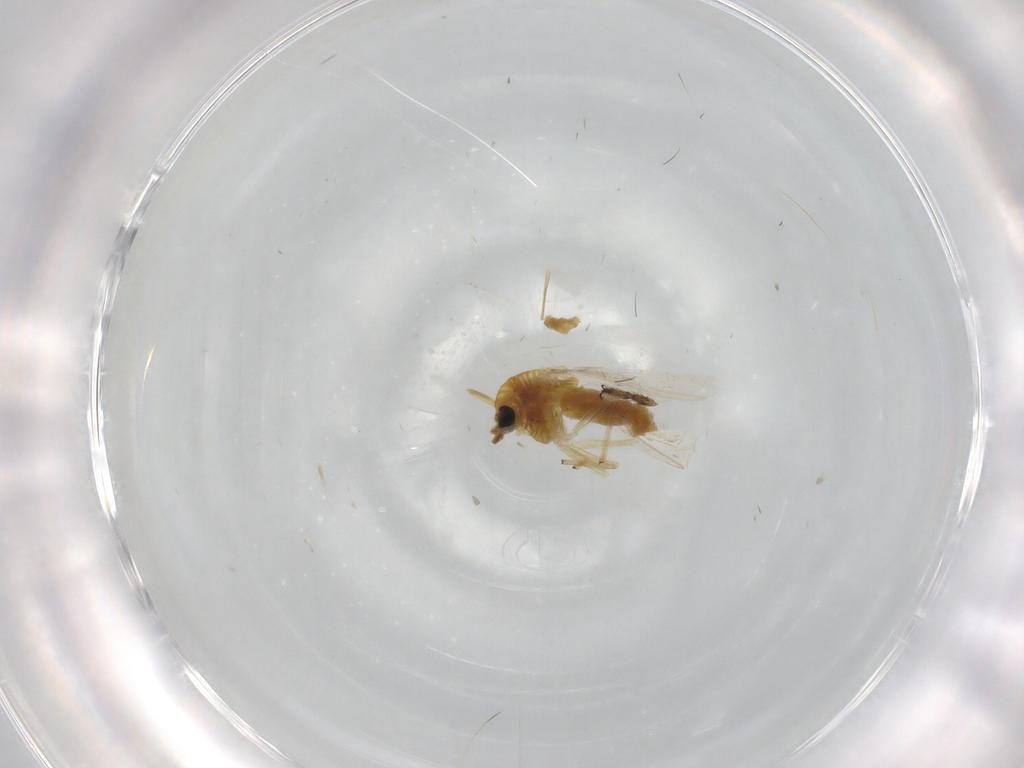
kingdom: Animalia
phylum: Arthropoda
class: Insecta
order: Diptera
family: Chironomidae
